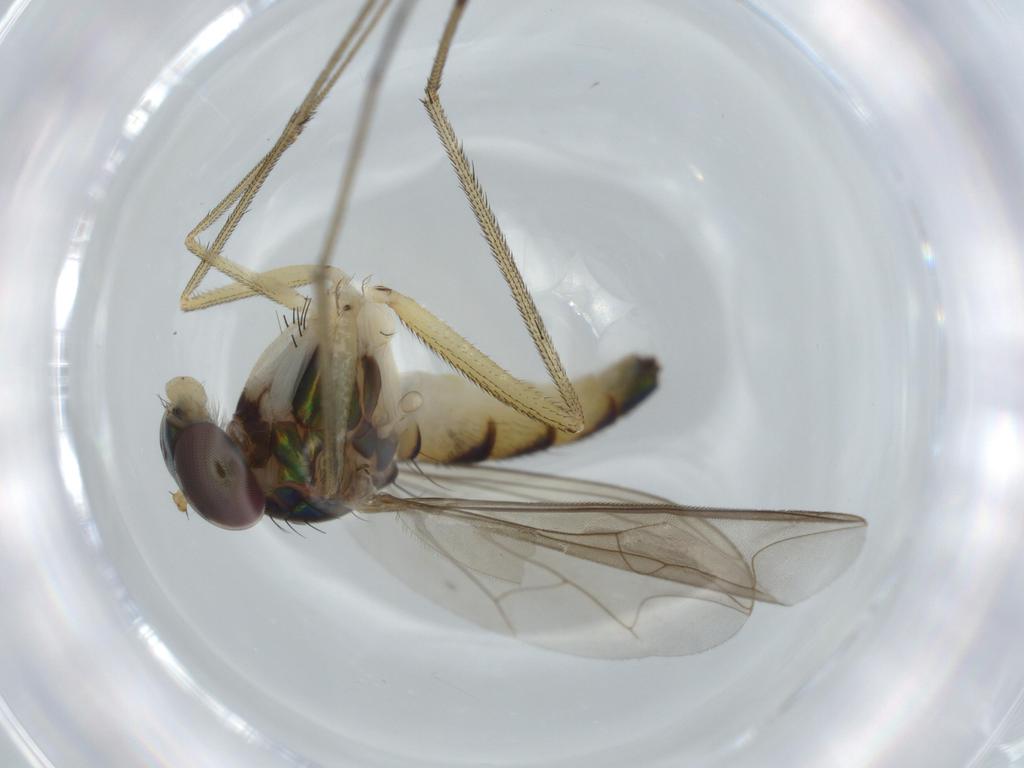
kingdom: Animalia
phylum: Arthropoda
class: Insecta
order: Diptera
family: Dolichopodidae
